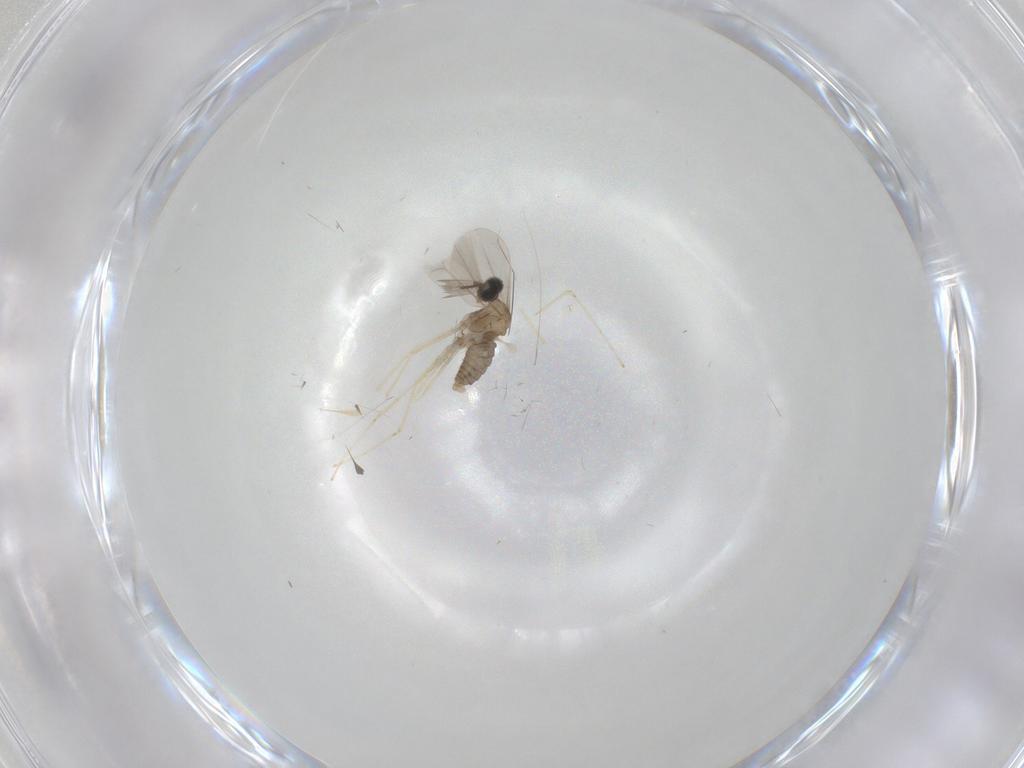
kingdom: Animalia
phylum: Arthropoda
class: Insecta
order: Diptera
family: Cecidomyiidae
